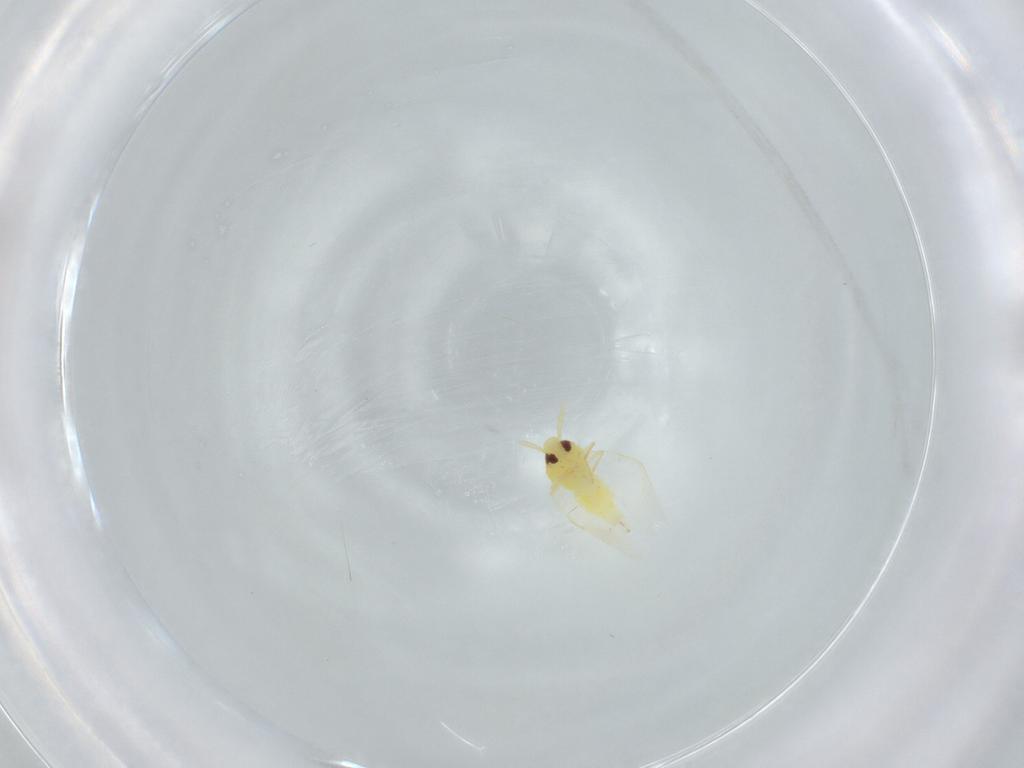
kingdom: Animalia
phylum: Arthropoda
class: Insecta
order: Hemiptera
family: Aleyrodidae
